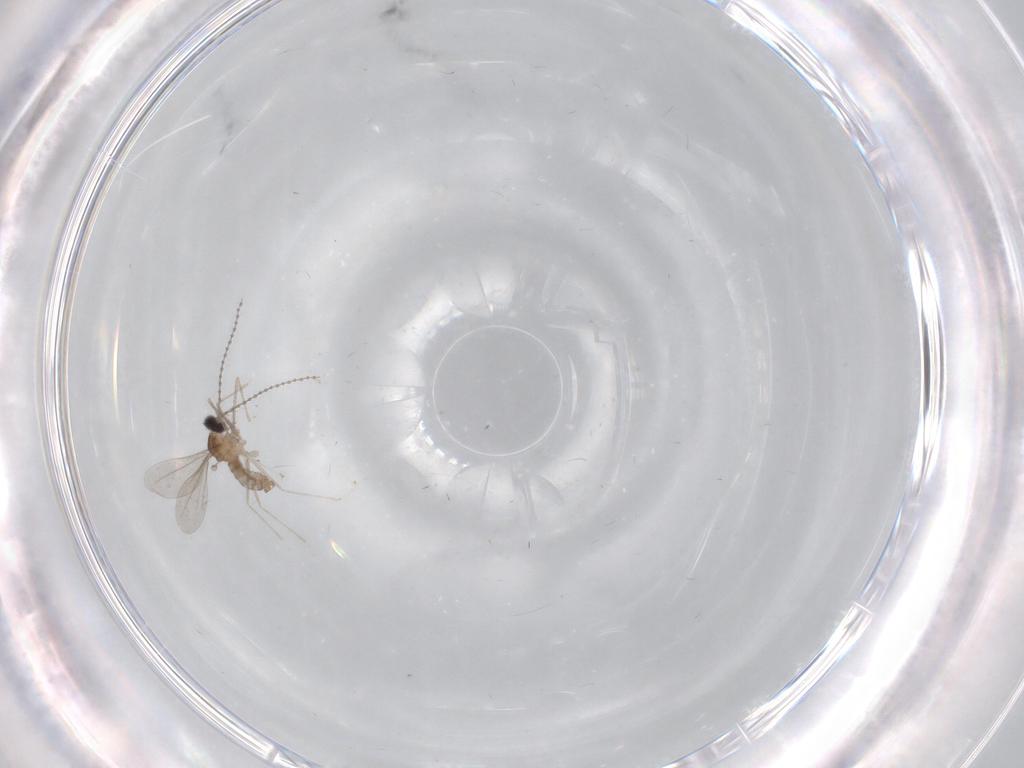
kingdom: Animalia
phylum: Arthropoda
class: Insecta
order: Diptera
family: Cecidomyiidae
